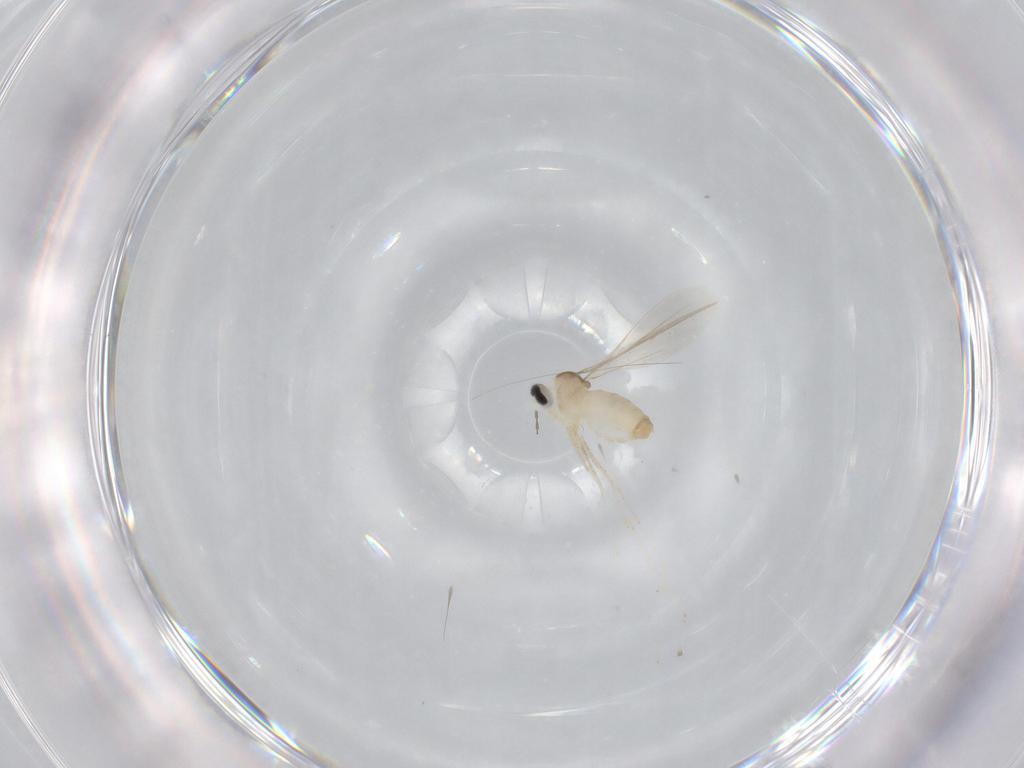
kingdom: Animalia
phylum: Arthropoda
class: Insecta
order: Diptera
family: Cecidomyiidae
